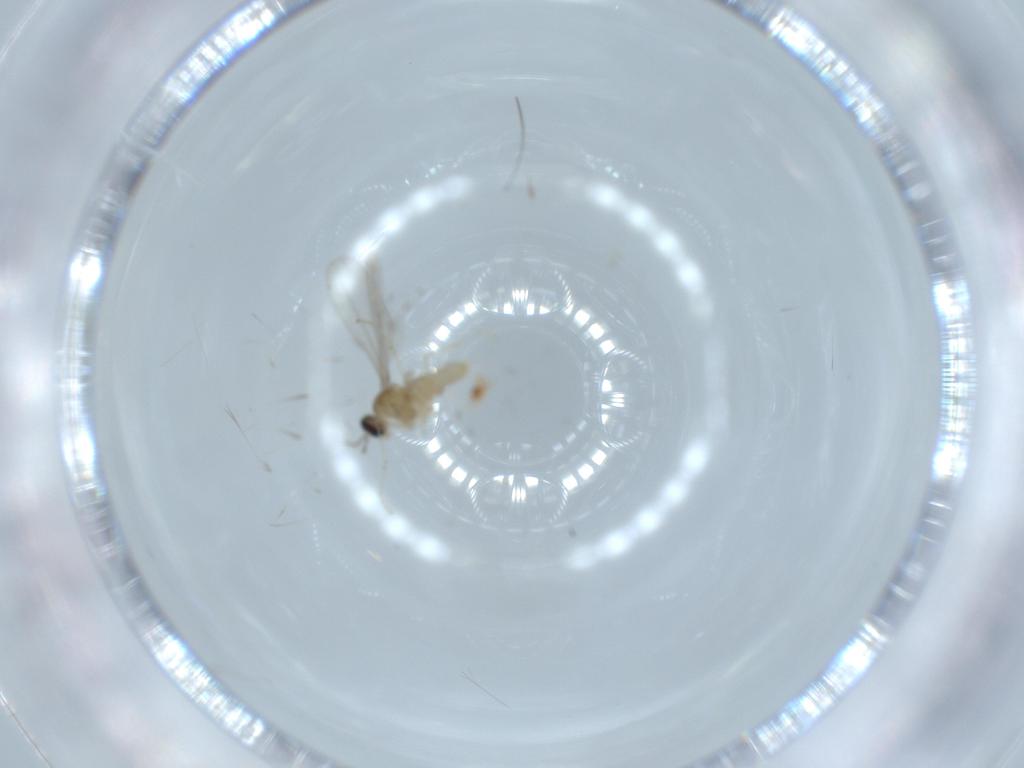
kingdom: Animalia
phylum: Arthropoda
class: Insecta
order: Diptera
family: Cecidomyiidae
